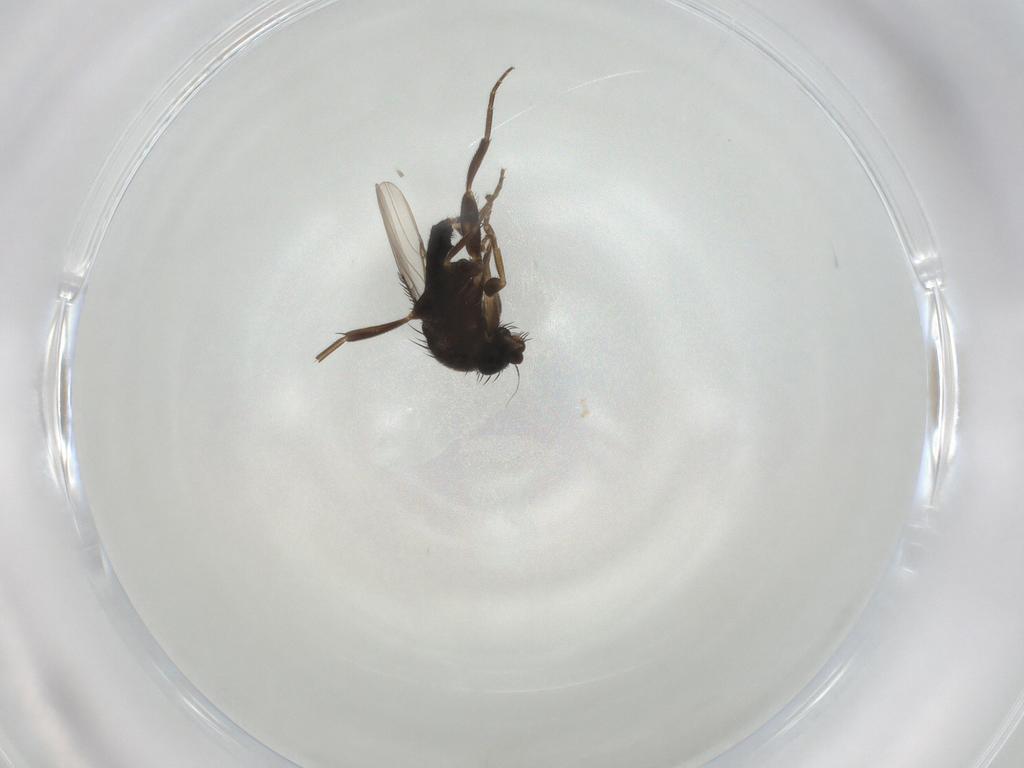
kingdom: Animalia
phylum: Arthropoda
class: Insecta
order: Diptera
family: Phoridae
